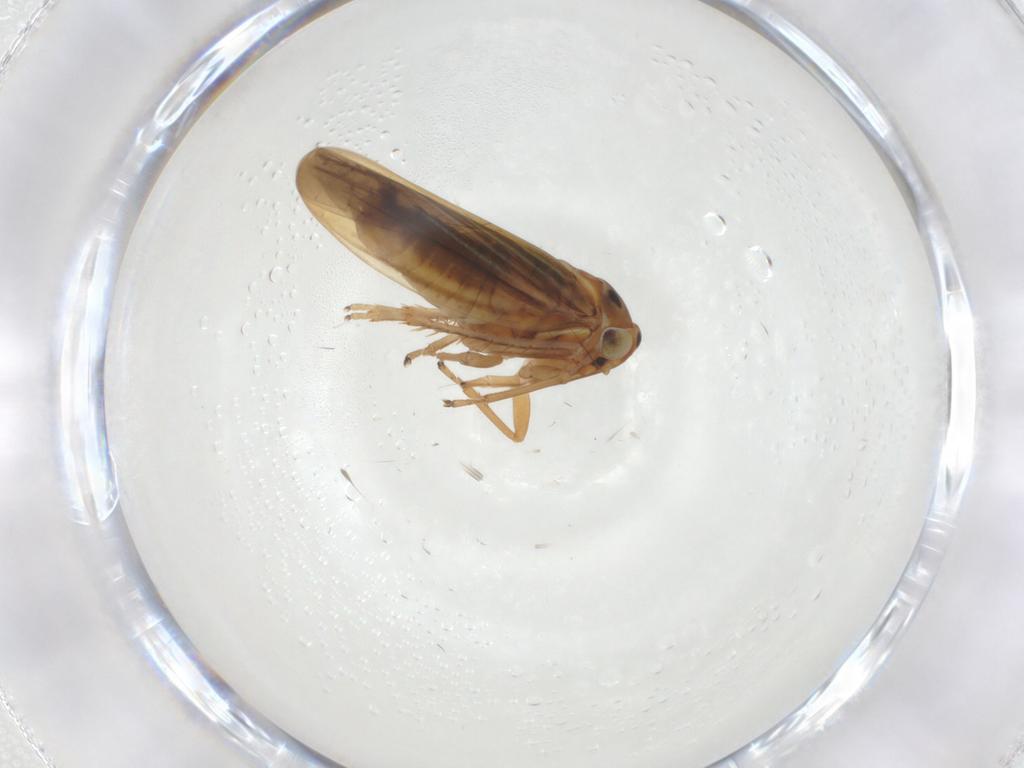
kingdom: Animalia
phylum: Arthropoda
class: Insecta
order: Hemiptera
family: Cicadellidae
